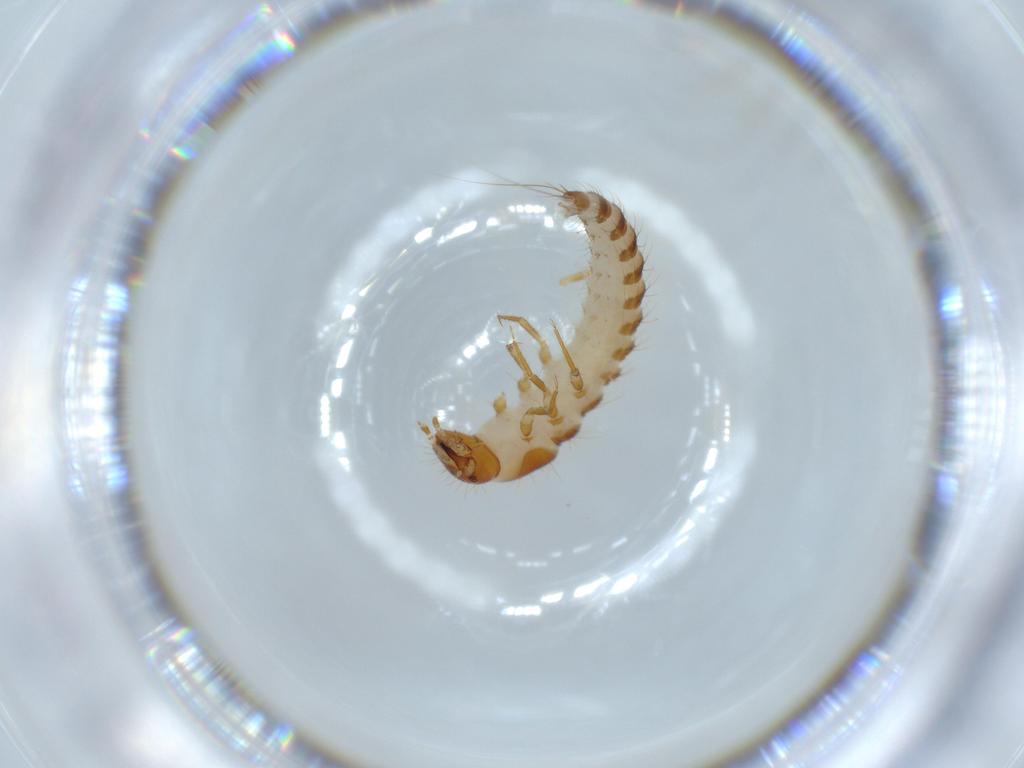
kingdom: Animalia
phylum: Arthropoda
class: Insecta
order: Coleoptera
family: Meloidae
